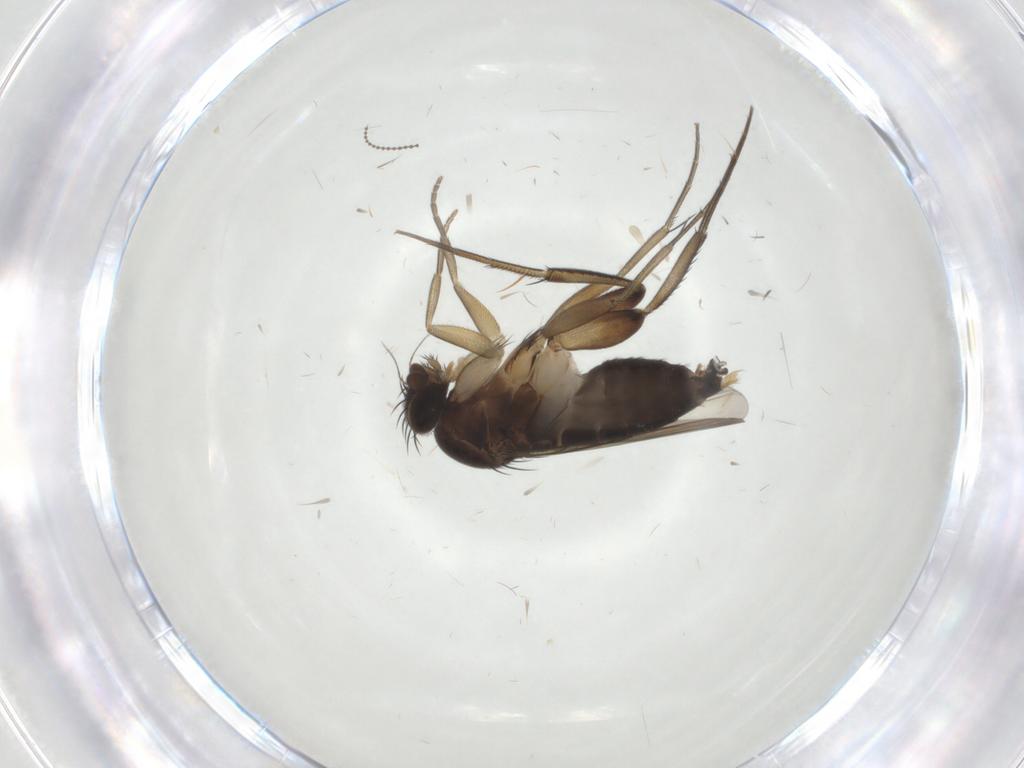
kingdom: Animalia
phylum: Arthropoda
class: Insecta
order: Diptera
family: Phoridae
